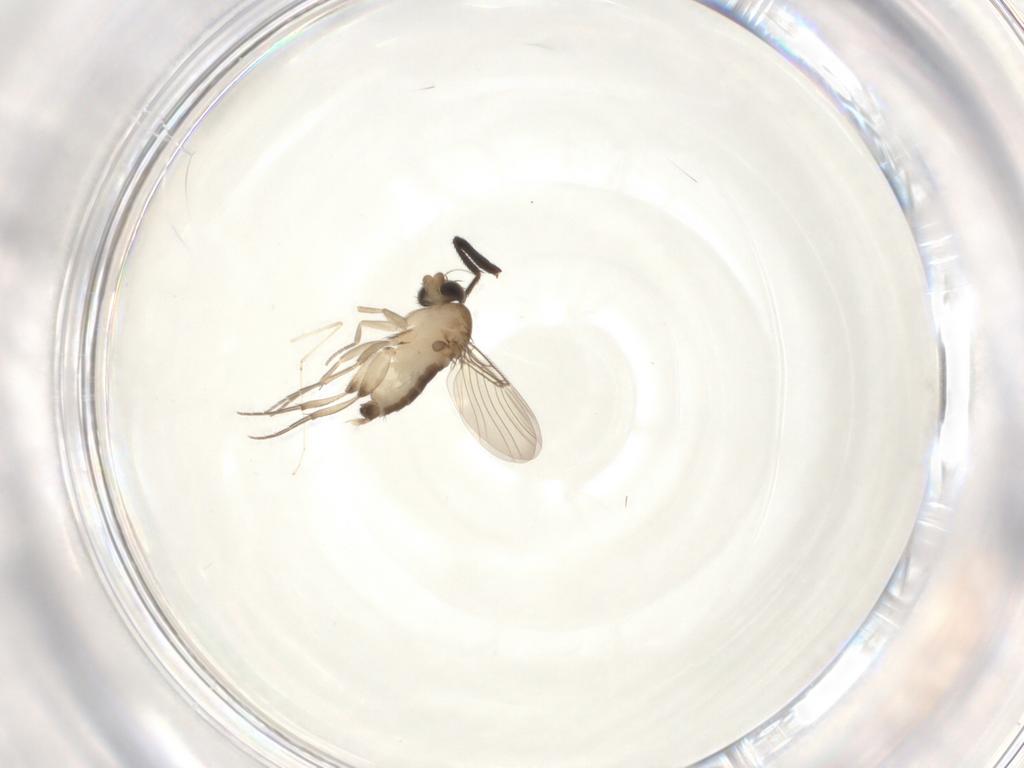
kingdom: Animalia
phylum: Arthropoda
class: Insecta
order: Diptera
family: Phoridae
